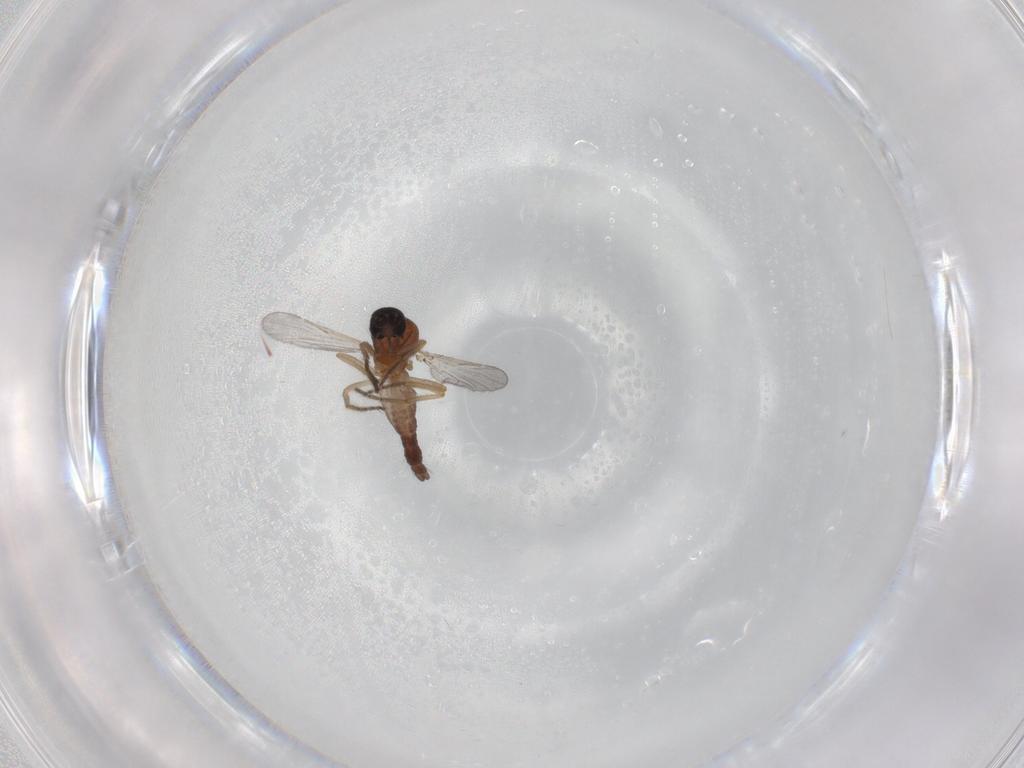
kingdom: Animalia
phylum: Arthropoda
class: Insecta
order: Diptera
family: Ceratopogonidae
